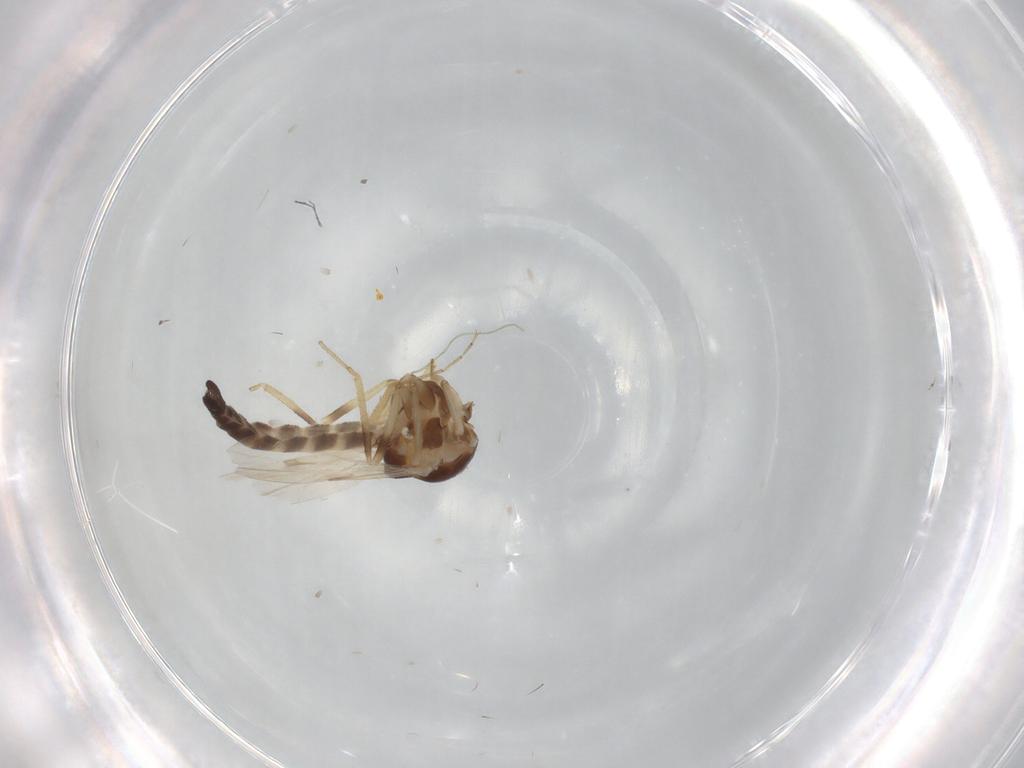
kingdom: Animalia
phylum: Arthropoda
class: Insecta
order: Diptera
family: Ceratopogonidae
